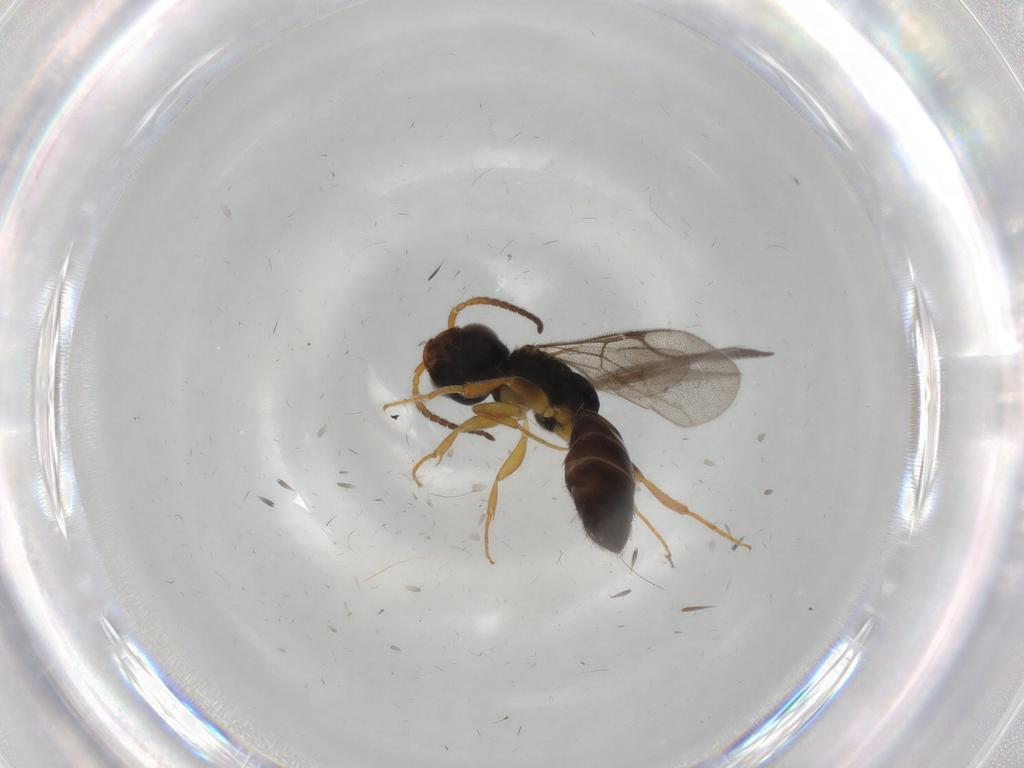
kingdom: Animalia
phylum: Arthropoda
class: Insecta
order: Hymenoptera
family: Bethylidae
